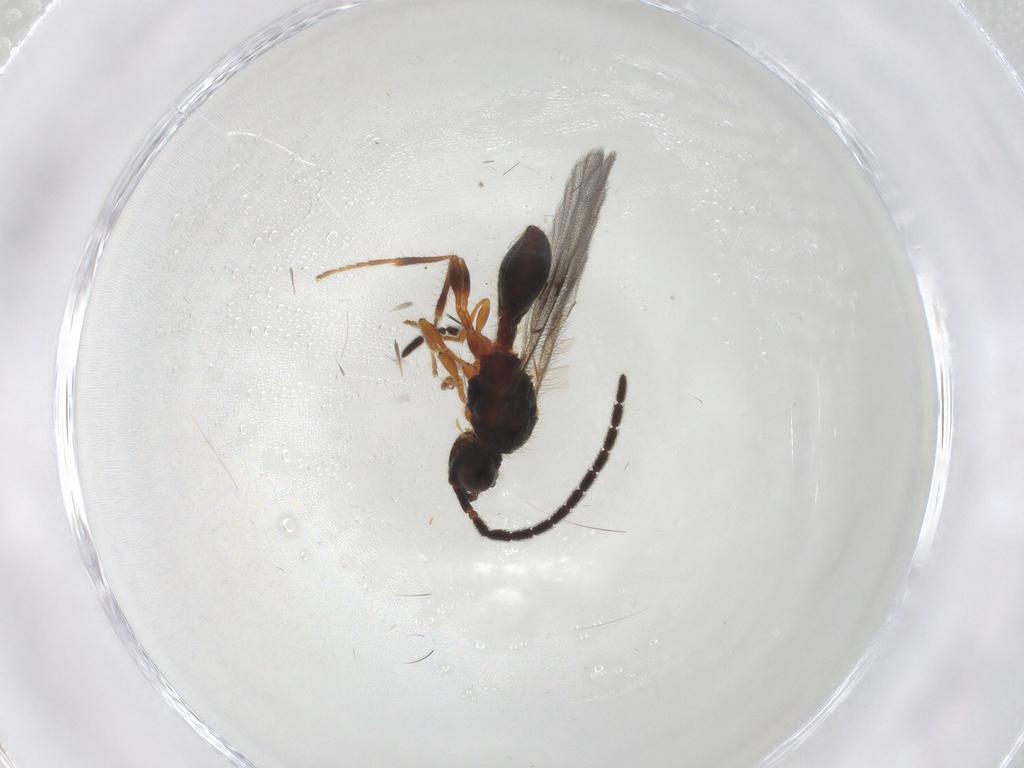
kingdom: Animalia
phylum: Arthropoda
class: Insecta
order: Hymenoptera
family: Diapriidae
